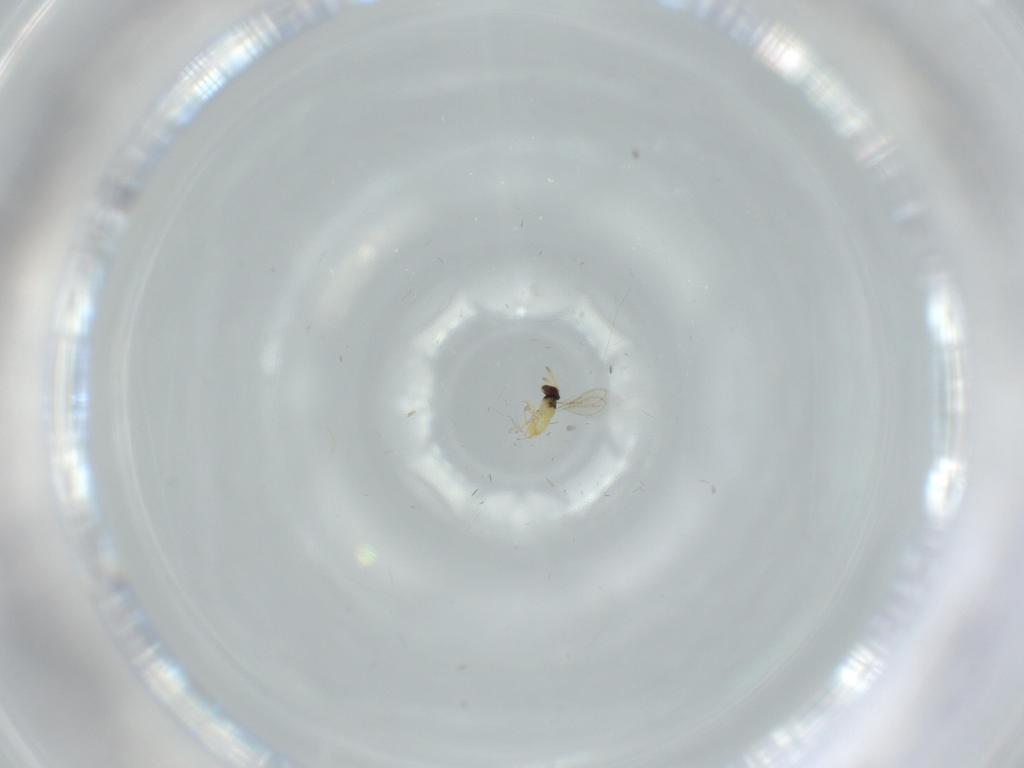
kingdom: Animalia
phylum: Arthropoda
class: Insecta
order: Hymenoptera
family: Aphelinidae
